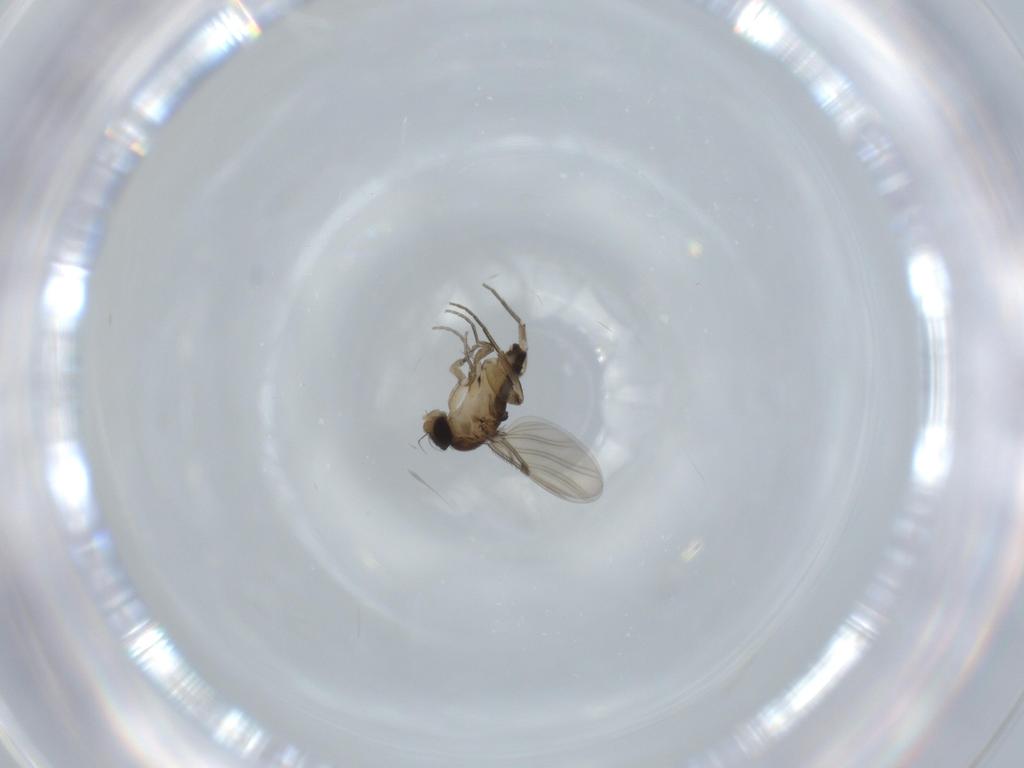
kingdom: Animalia
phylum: Arthropoda
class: Insecta
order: Diptera
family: Phoridae
